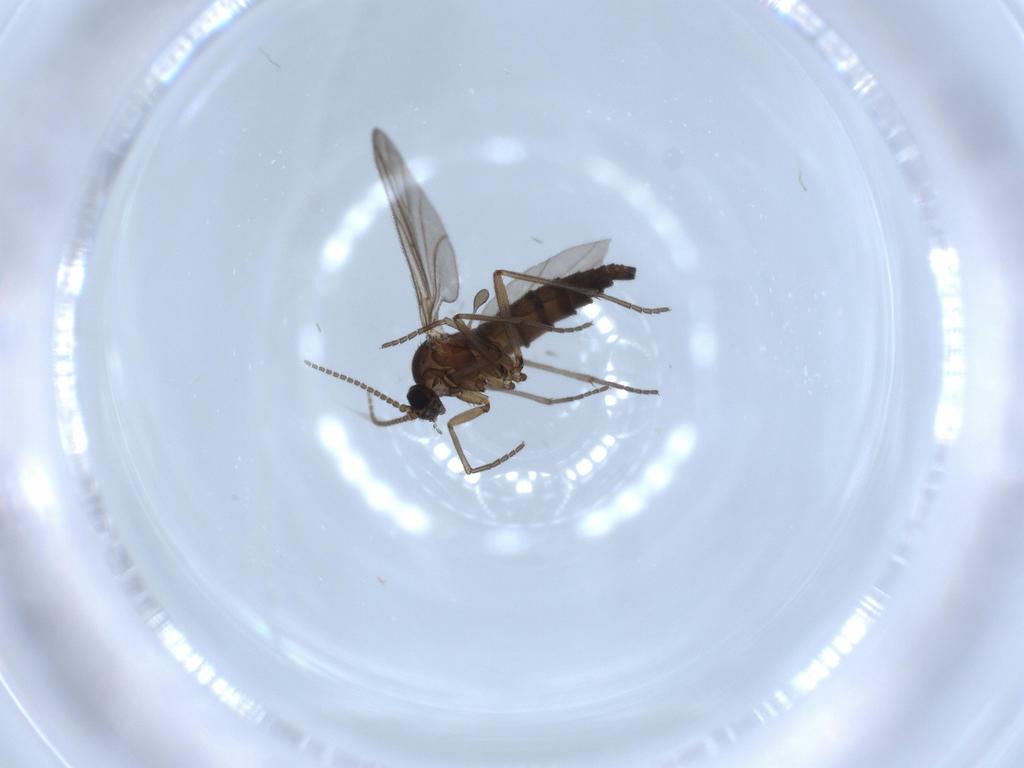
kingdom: Animalia
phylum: Arthropoda
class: Insecta
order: Diptera
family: Sciaridae
